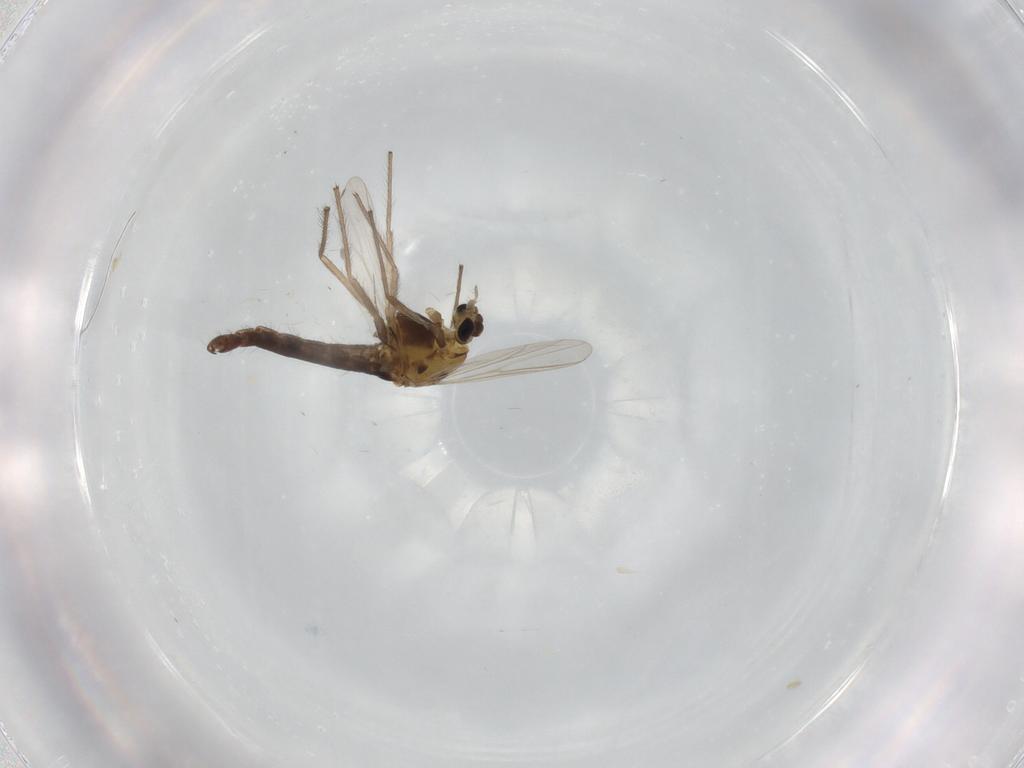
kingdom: Animalia
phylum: Arthropoda
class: Insecta
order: Diptera
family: Chironomidae
